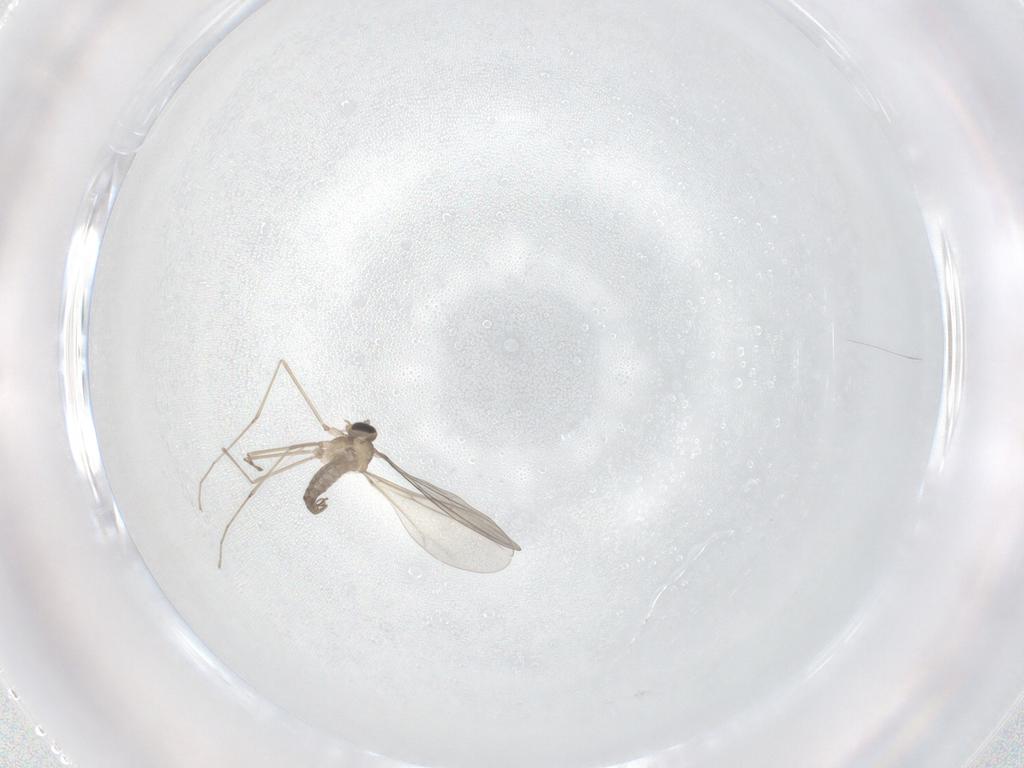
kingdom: Animalia
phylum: Arthropoda
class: Insecta
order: Diptera
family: Cecidomyiidae
